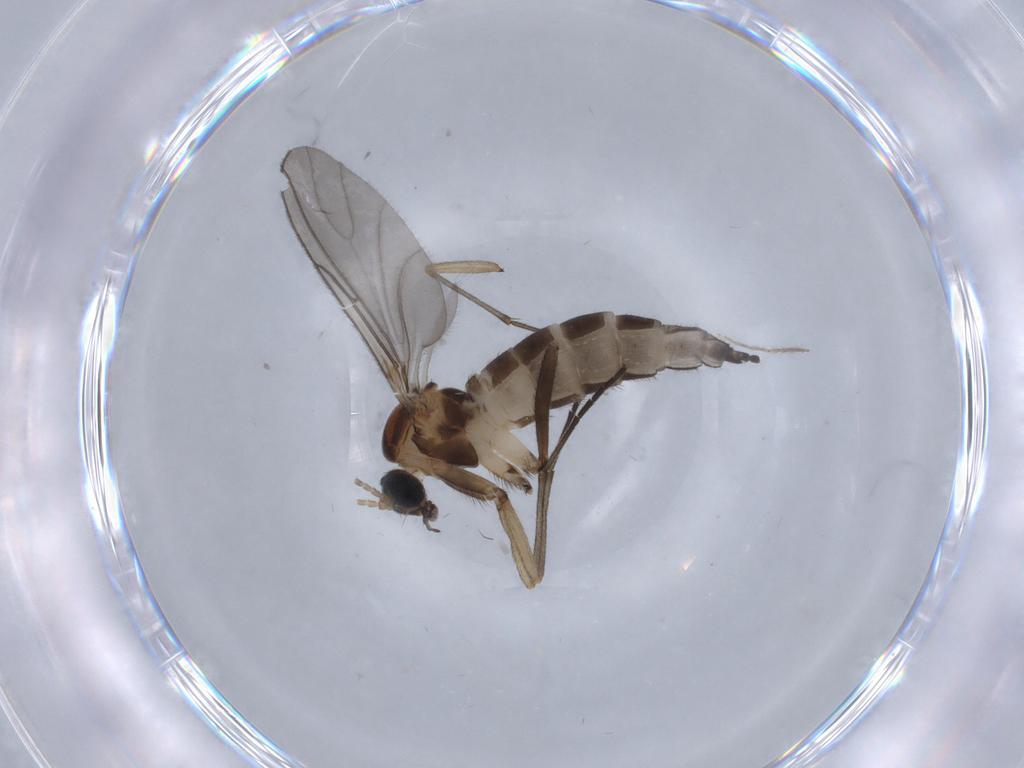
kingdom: Animalia
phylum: Arthropoda
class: Insecta
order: Diptera
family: Sciaridae
